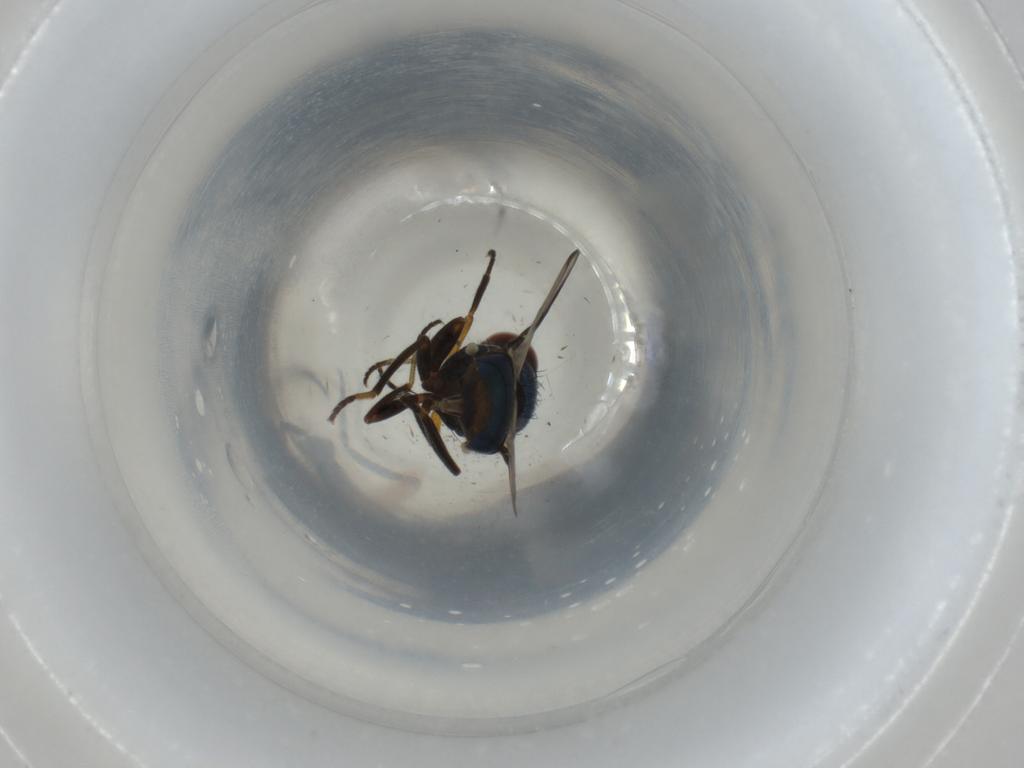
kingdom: Animalia
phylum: Arthropoda
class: Insecta
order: Diptera
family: Ulidiidae
